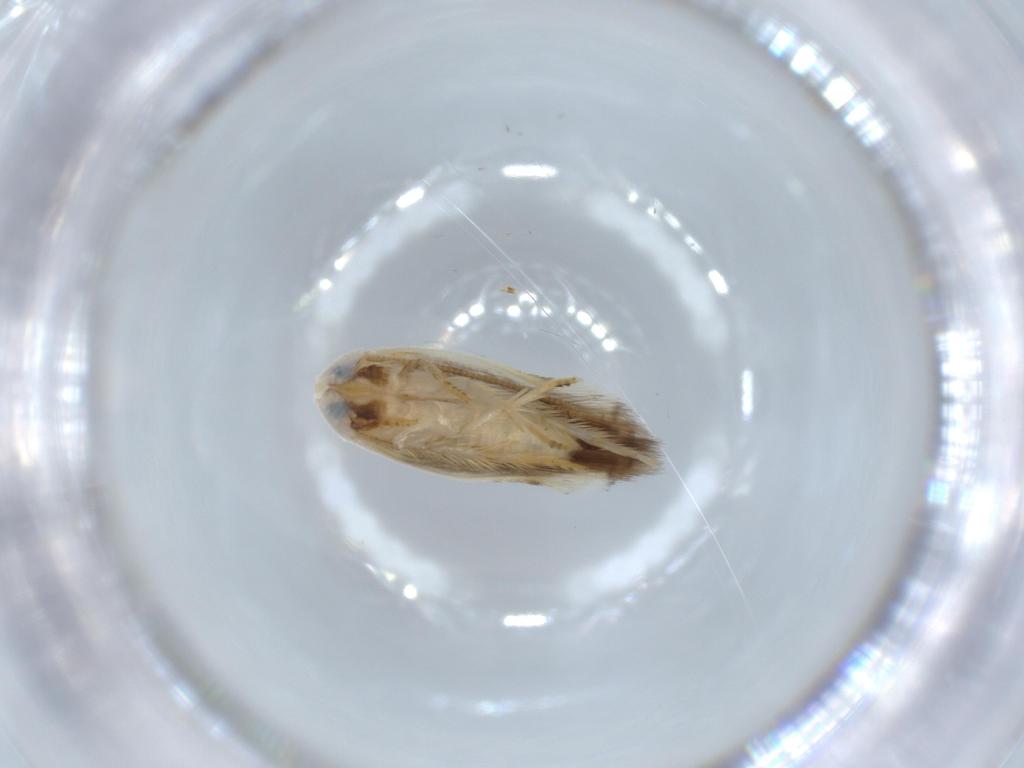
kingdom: Animalia
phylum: Arthropoda
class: Insecta
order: Lepidoptera
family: Opostegidae
